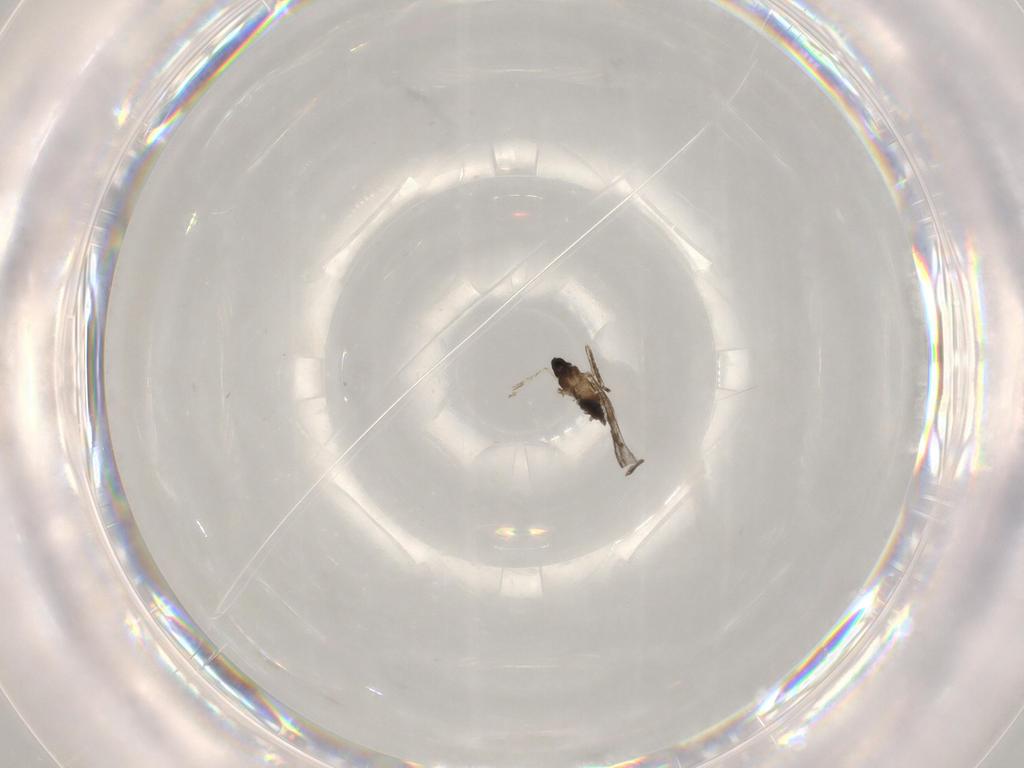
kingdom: Animalia
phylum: Arthropoda
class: Insecta
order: Diptera
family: Cecidomyiidae
